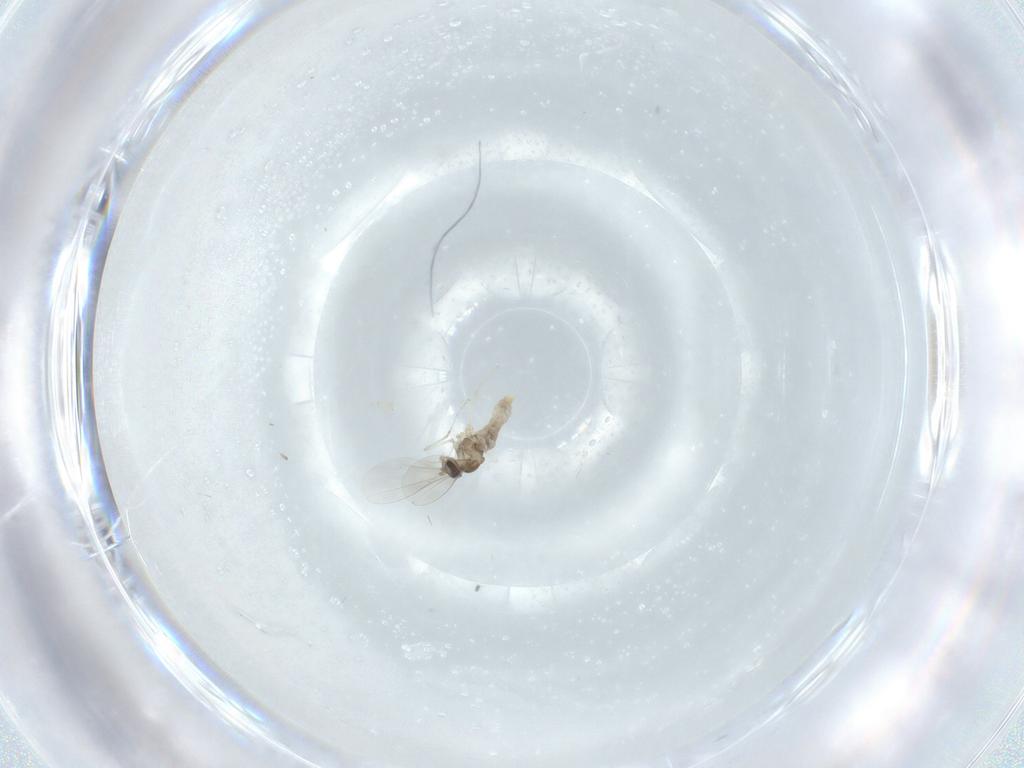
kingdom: Animalia
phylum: Arthropoda
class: Insecta
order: Diptera
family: Cecidomyiidae
